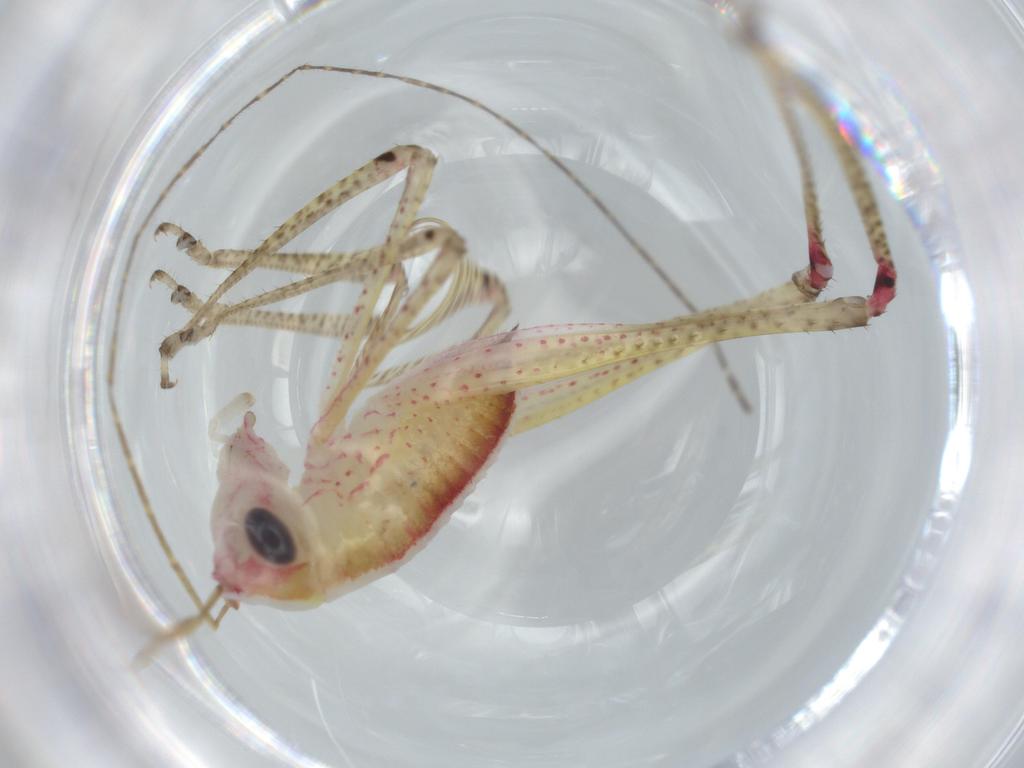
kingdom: Animalia
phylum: Arthropoda
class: Insecta
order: Orthoptera
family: Tettigoniidae
